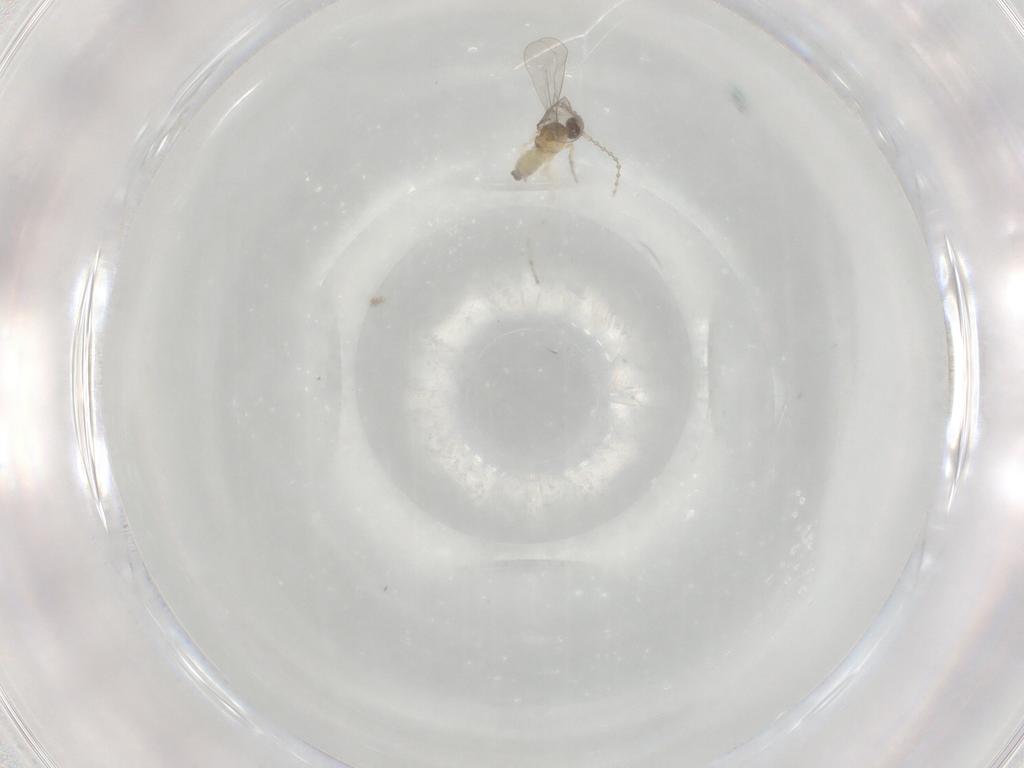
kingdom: Animalia
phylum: Arthropoda
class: Insecta
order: Diptera
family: Cecidomyiidae
